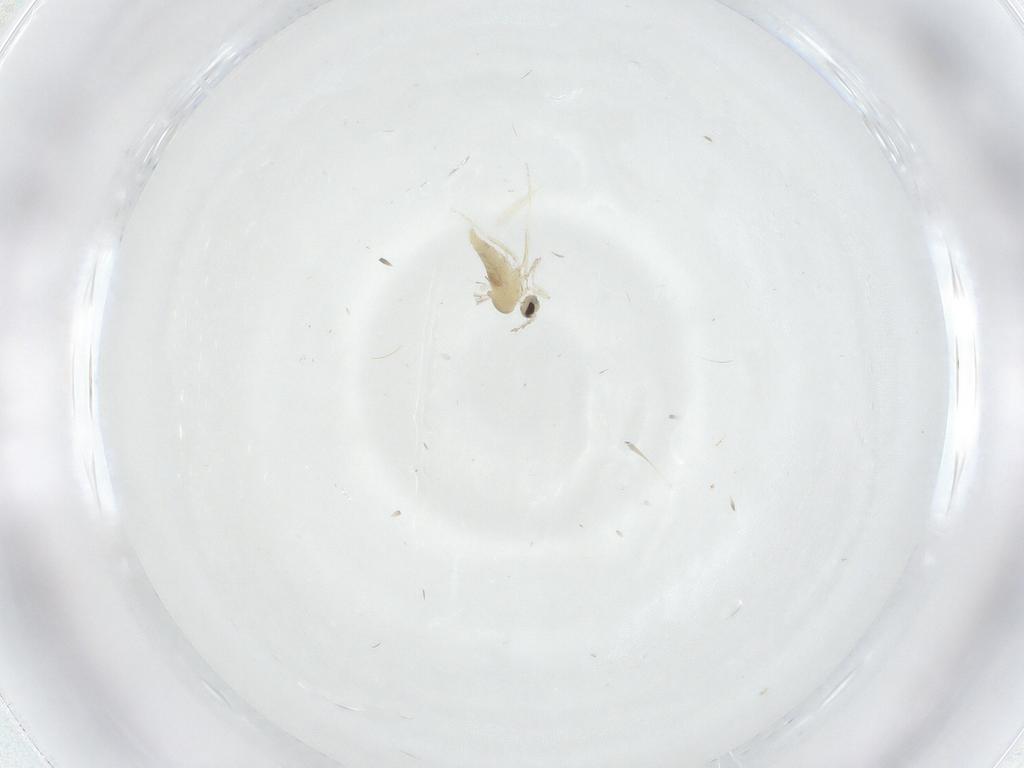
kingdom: Animalia
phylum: Arthropoda
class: Insecta
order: Diptera
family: Cecidomyiidae
